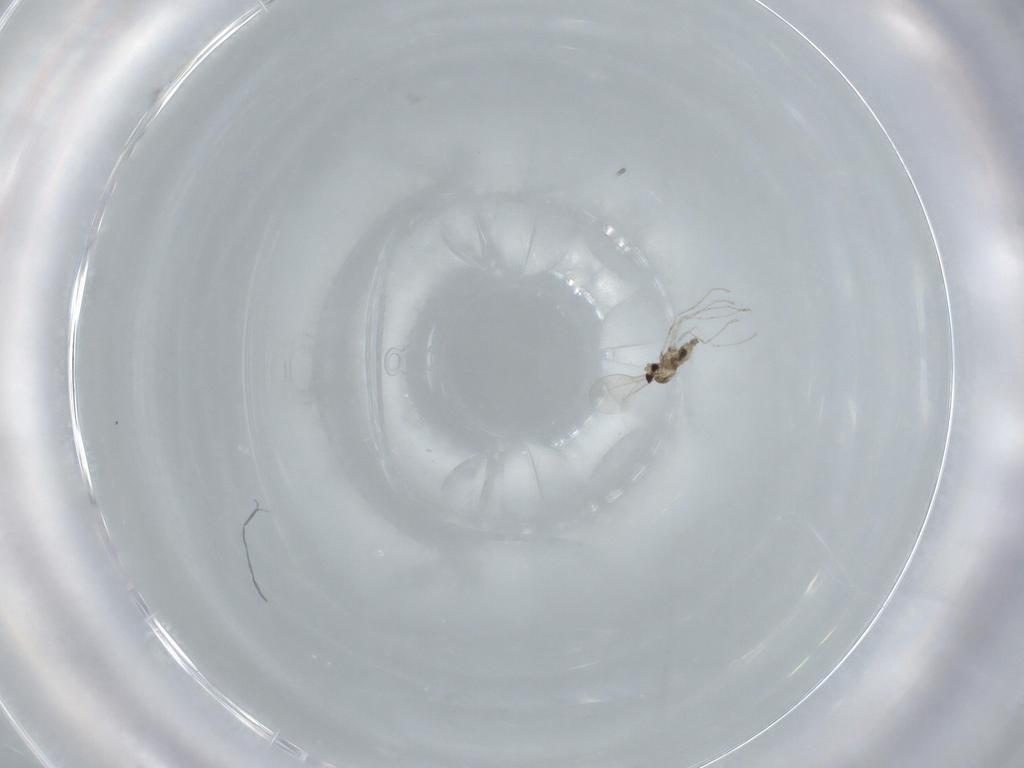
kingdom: Animalia
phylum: Arthropoda
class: Insecta
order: Diptera
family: Cecidomyiidae
